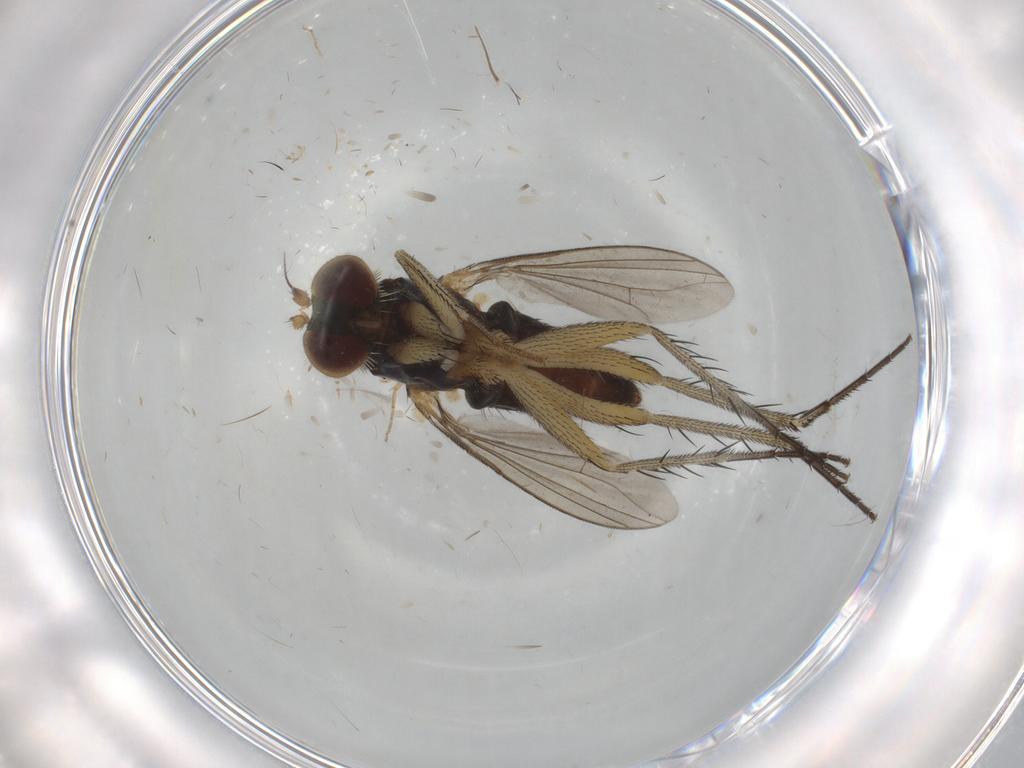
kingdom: Animalia
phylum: Arthropoda
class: Insecta
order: Diptera
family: Dolichopodidae
